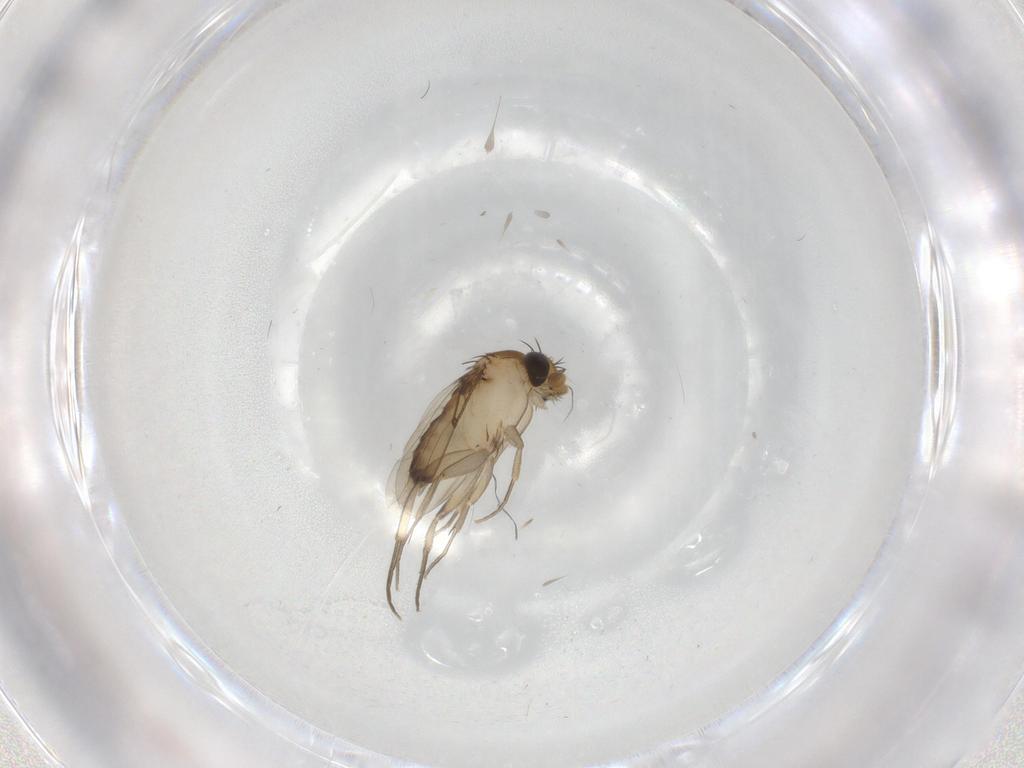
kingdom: Animalia
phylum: Arthropoda
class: Insecta
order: Diptera
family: Phoridae
